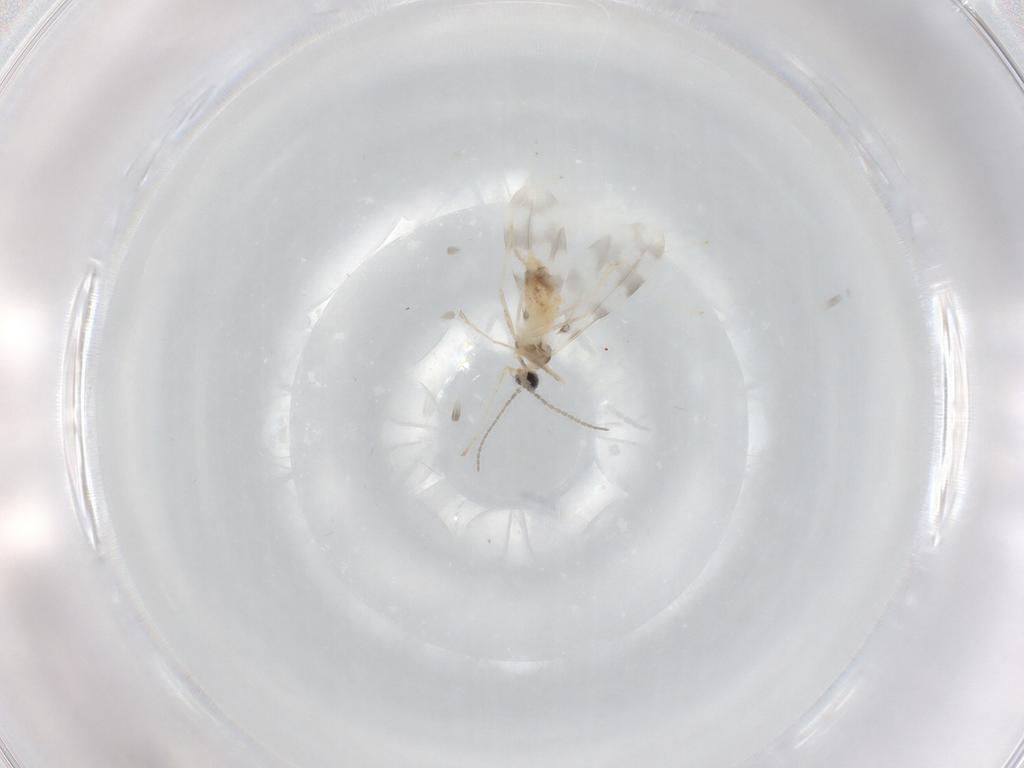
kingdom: Animalia
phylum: Arthropoda
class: Insecta
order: Diptera
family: Cecidomyiidae
